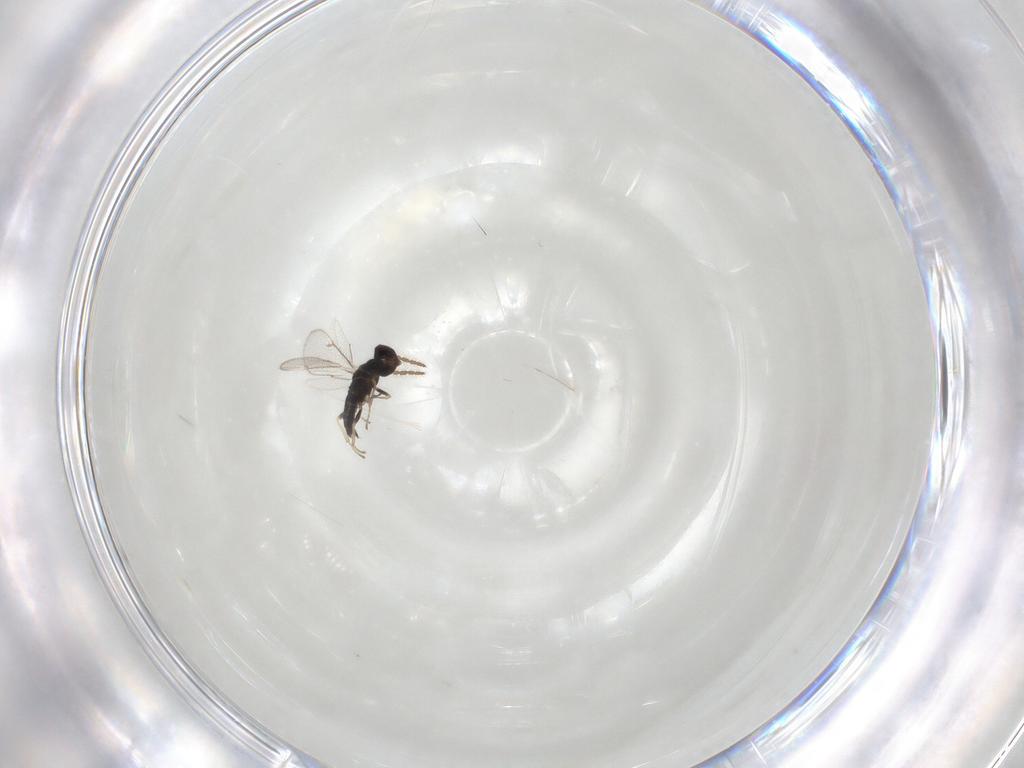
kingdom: Animalia
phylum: Arthropoda
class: Insecta
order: Hymenoptera
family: Eulophidae
